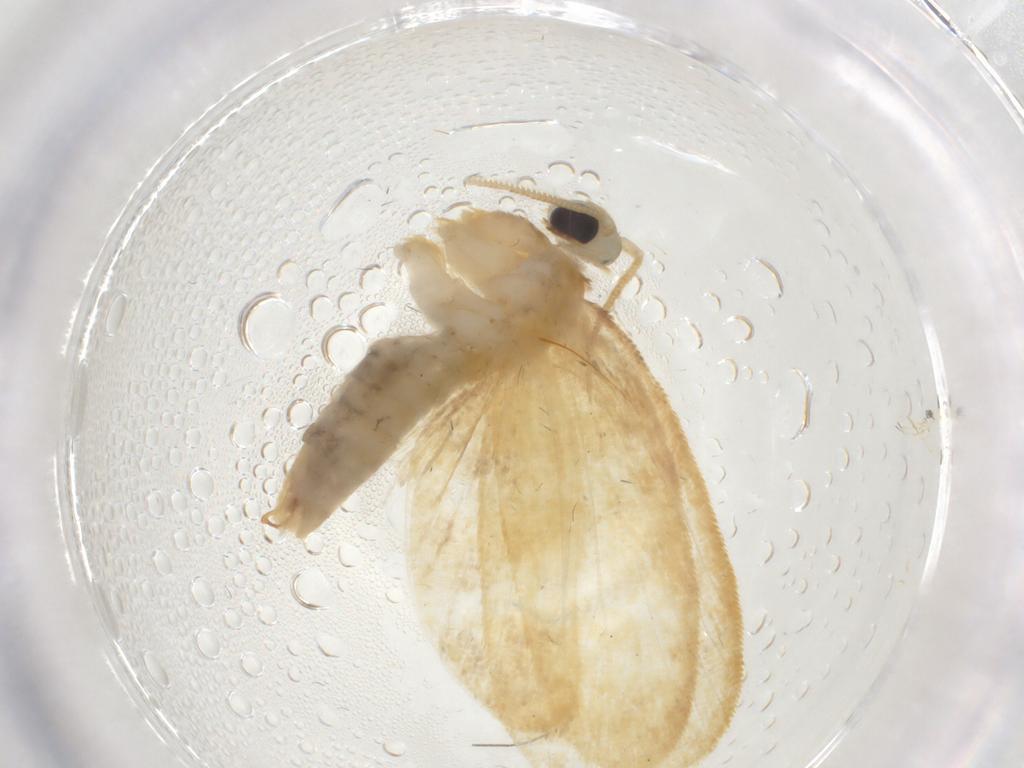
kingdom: Animalia
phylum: Arthropoda
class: Insecta
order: Lepidoptera
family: Psychidae
